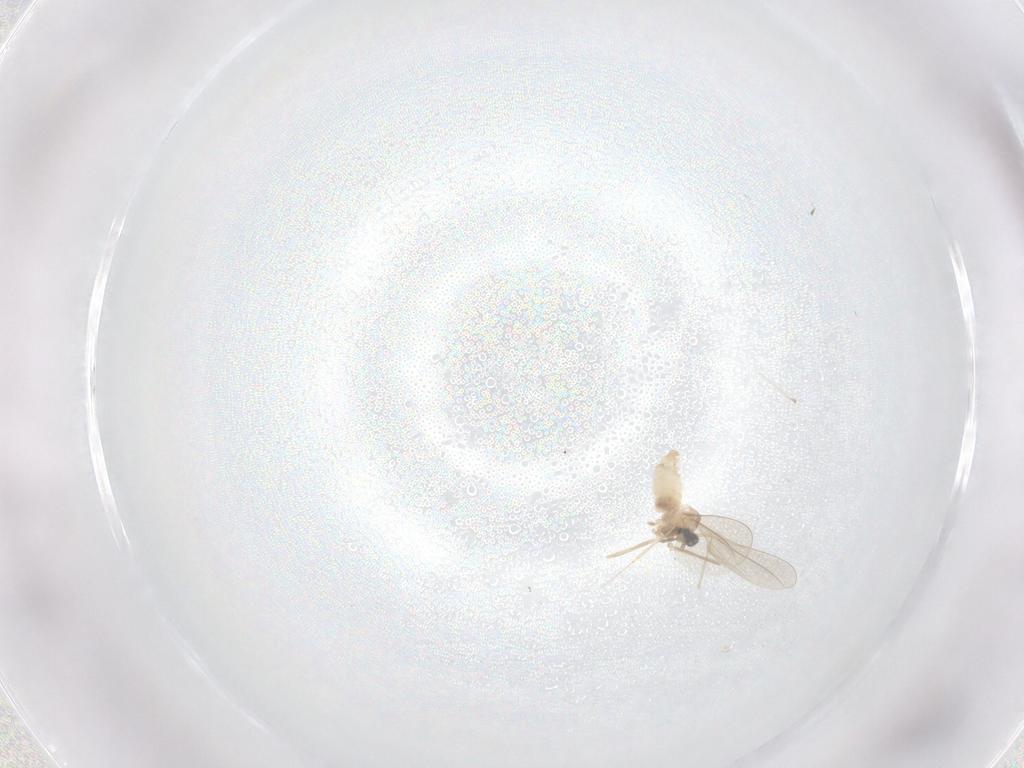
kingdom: Animalia
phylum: Arthropoda
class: Insecta
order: Diptera
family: Cecidomyiidae
